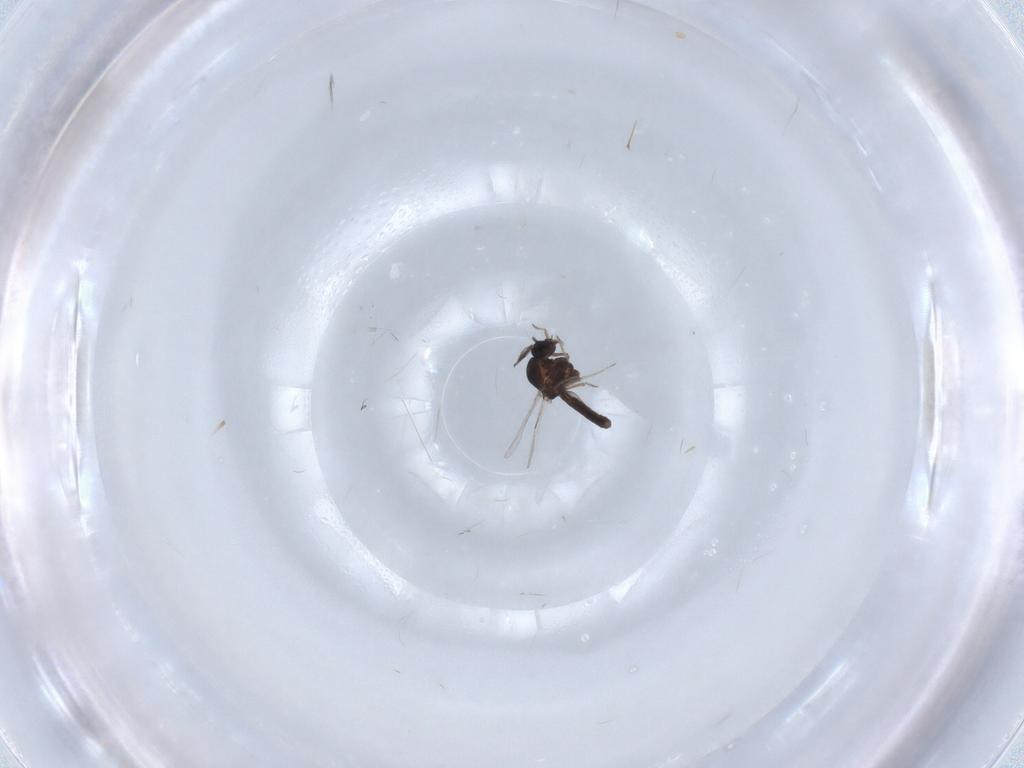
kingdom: Animalia
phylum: Arthropoda
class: Insecta
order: Diptera
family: Ceratopogonidae
